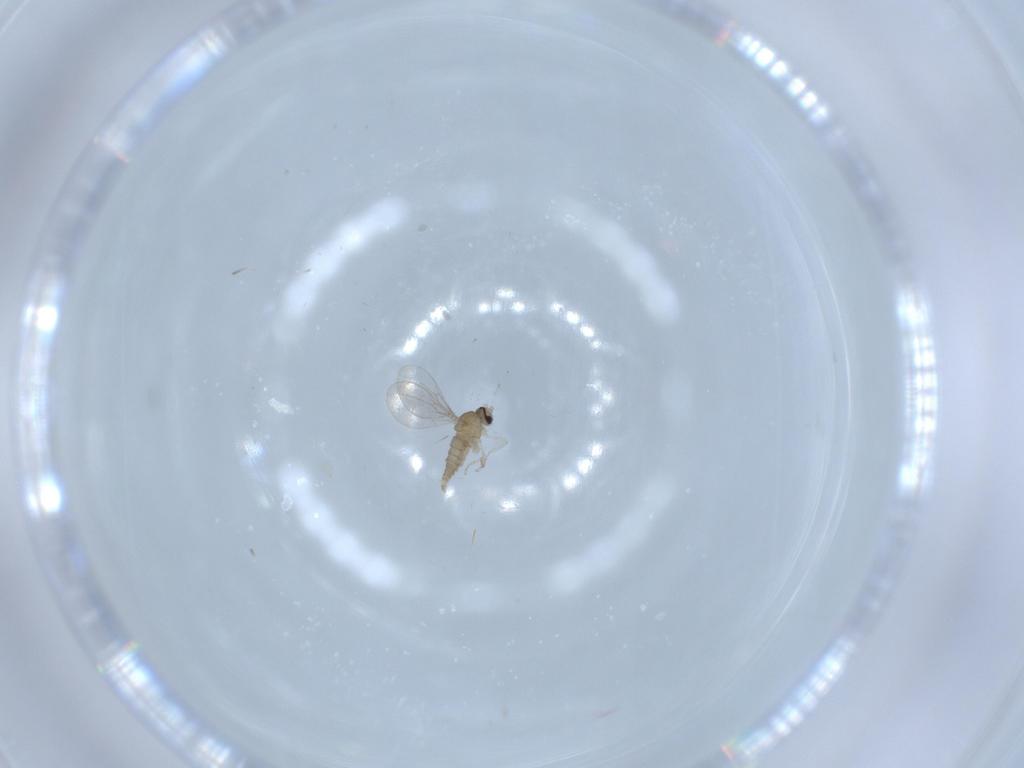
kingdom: Animalia
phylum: Arthropoda
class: Insecta
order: Diptera
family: Cecidomyiidae
